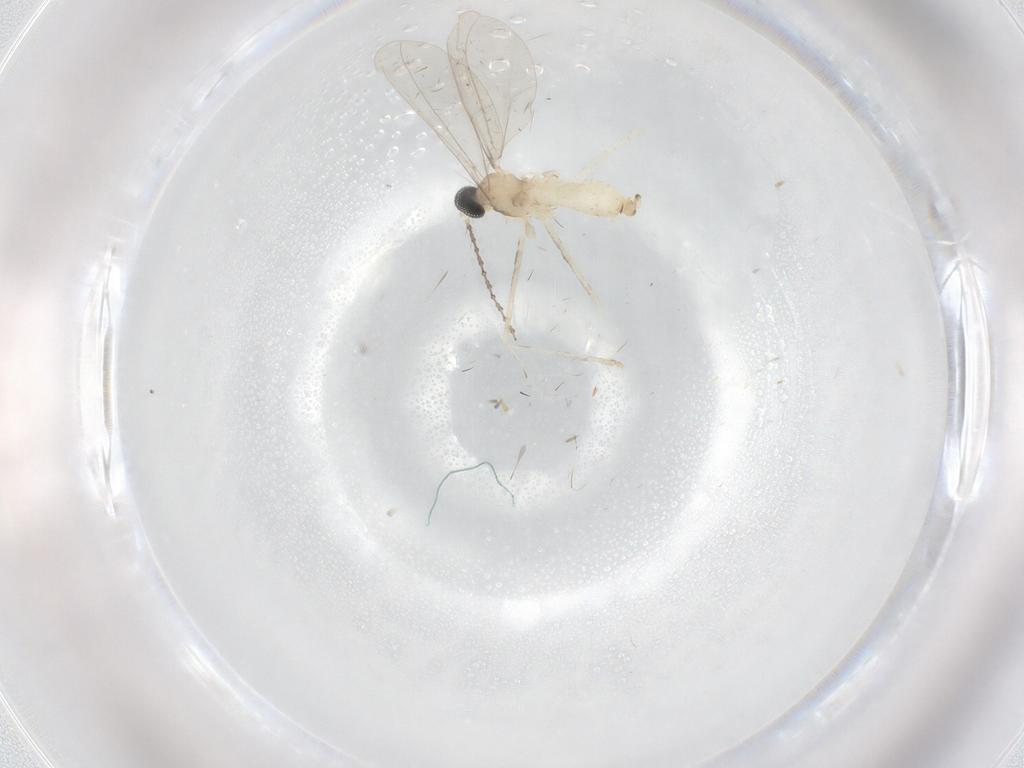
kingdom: Animalia
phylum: Arthropoda
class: Insecta
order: Diptera
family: Cecidomyiidae
